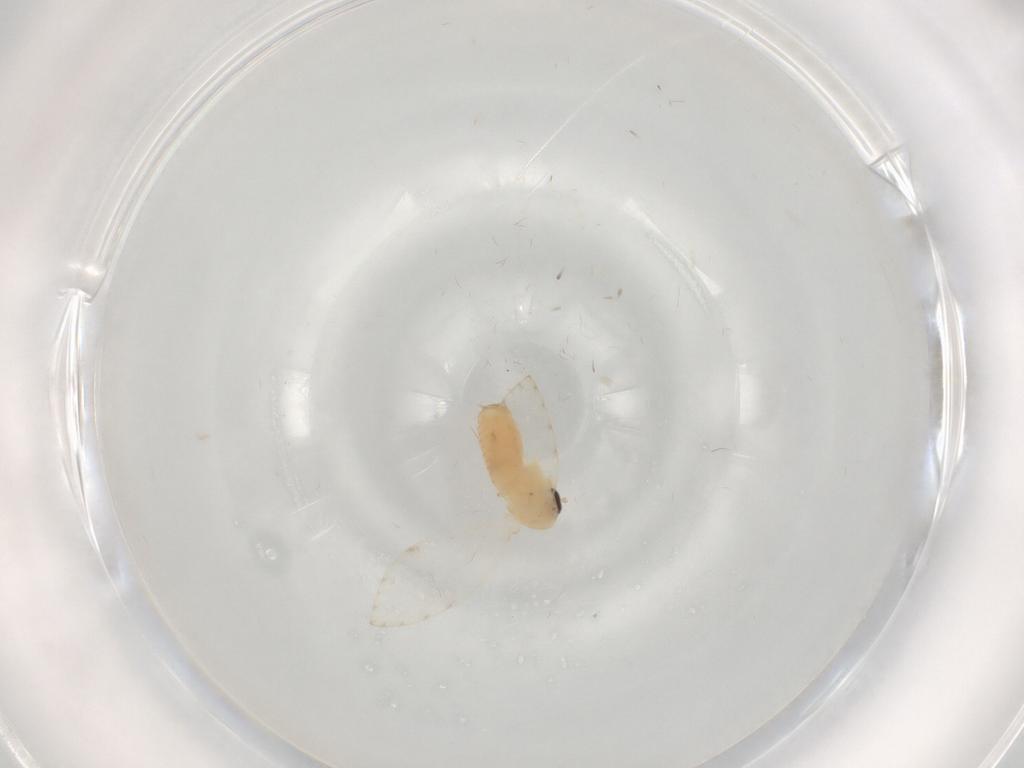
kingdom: Animalia
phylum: Arthropoda
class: Insecta
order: Diptera
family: Psychodidae
